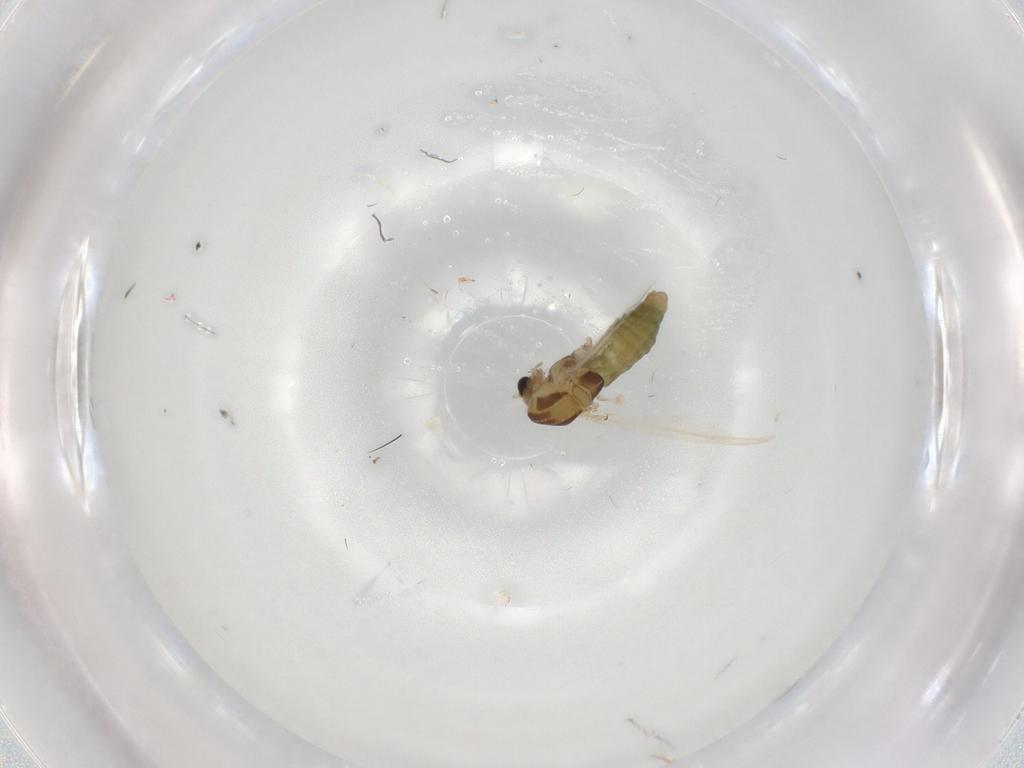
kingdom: Animalia
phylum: Arthropoda
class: Insecta
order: Diptera
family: Chironomidae
